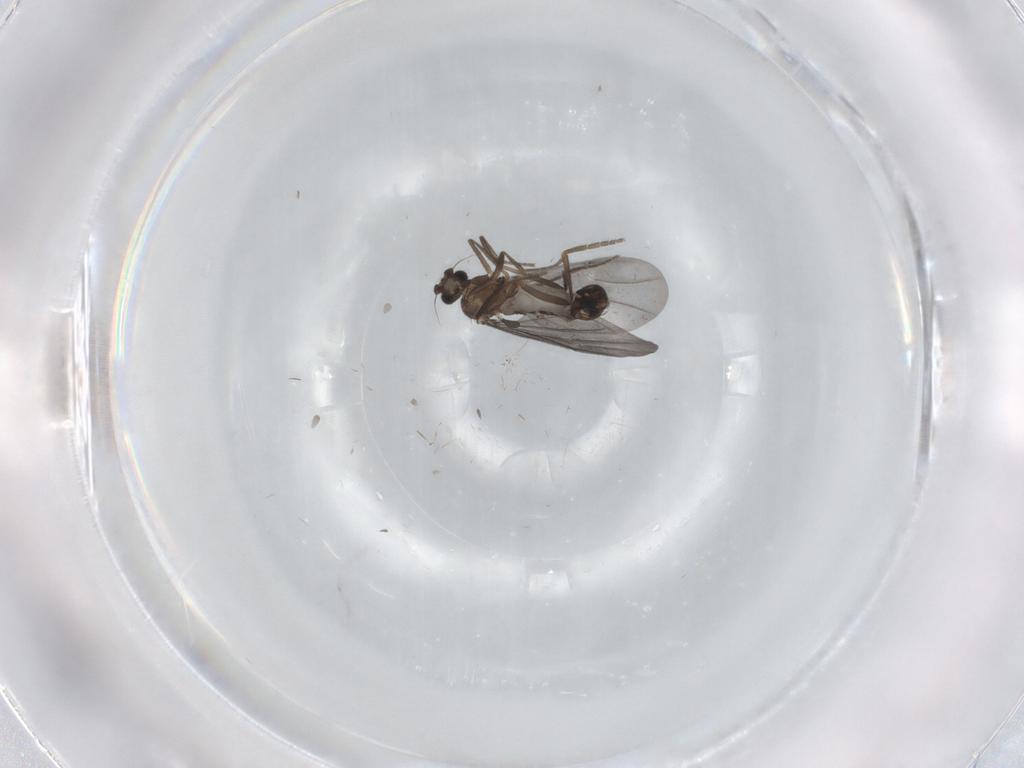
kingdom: Animalia
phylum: Arthropoda
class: Insecta
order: Diptera
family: Phoridae
